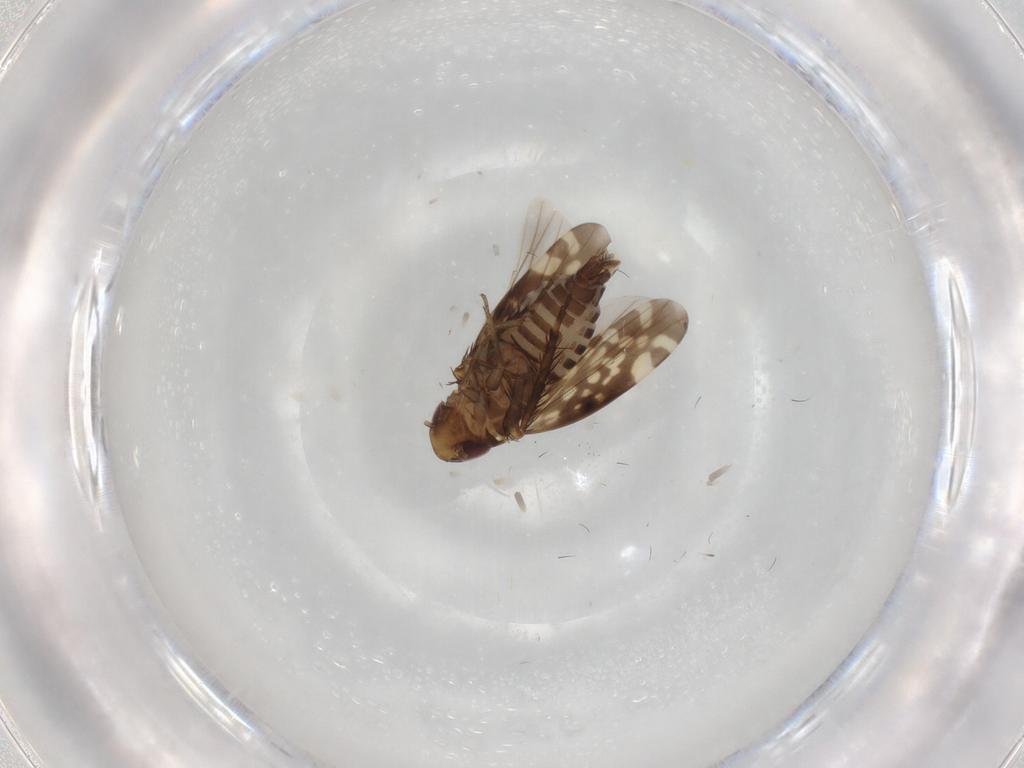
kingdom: Animalia
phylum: Arthropoda
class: Insecta
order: Hemiptera
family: Cicadellidae
